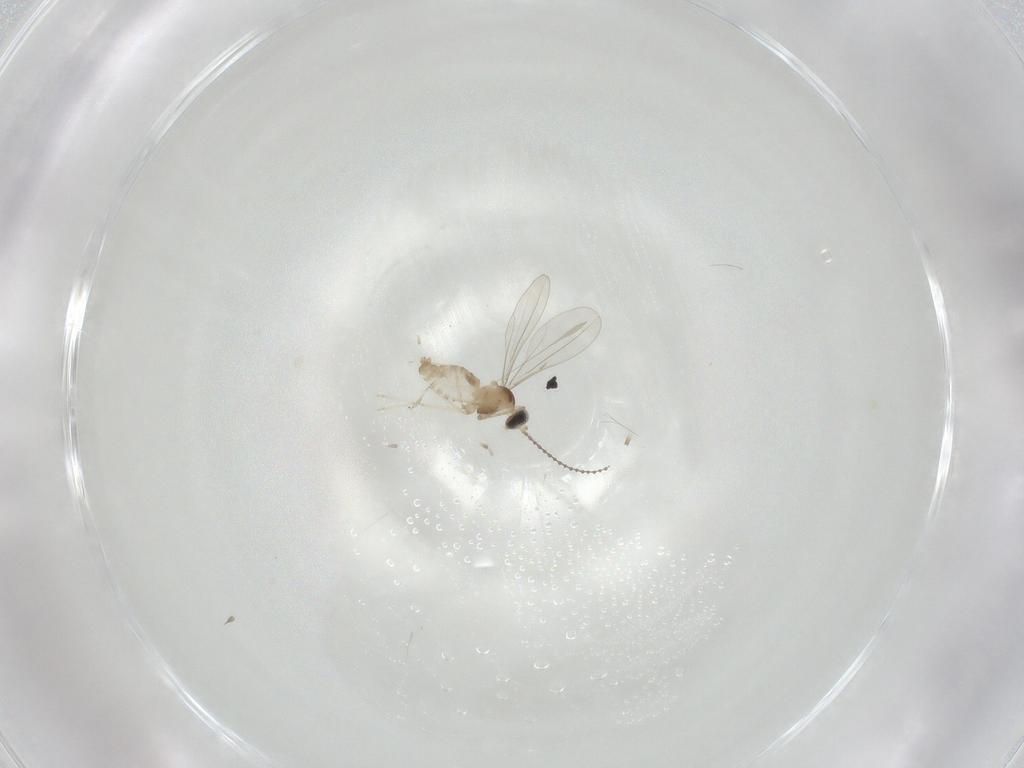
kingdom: Animalia
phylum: Arthropoda
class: Insecta
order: Diptera
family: Cecidomyiidae
